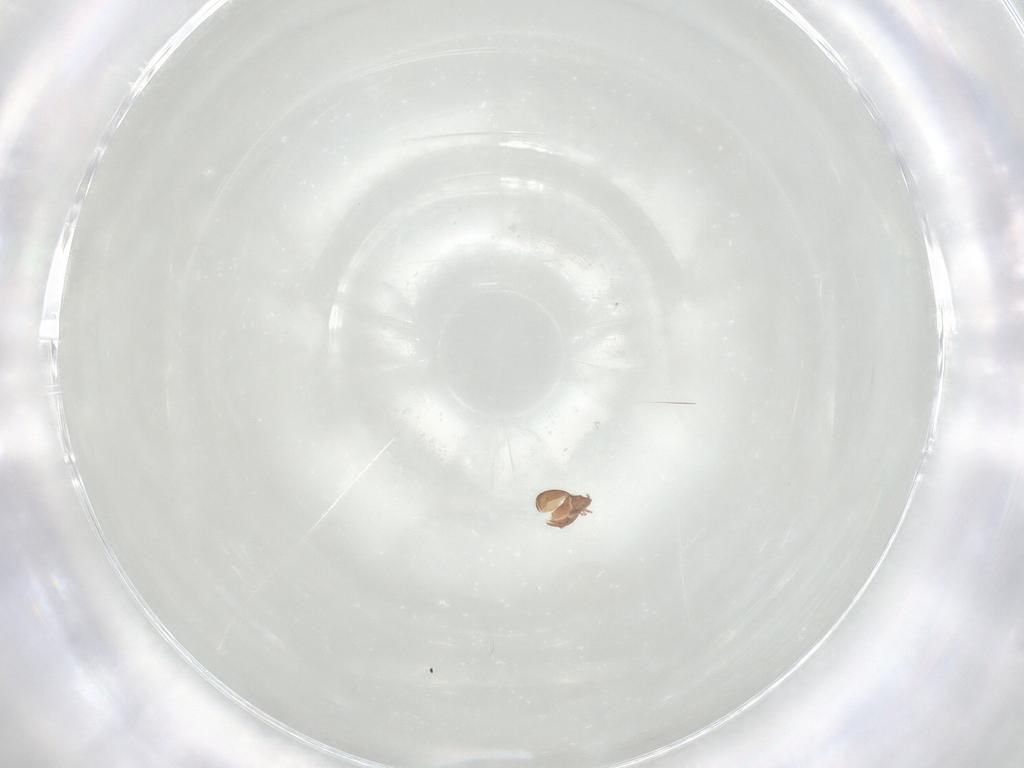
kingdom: Animalia
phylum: Arthropoda
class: Arachnida
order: Sarcoptiformes
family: Oribatulidae
